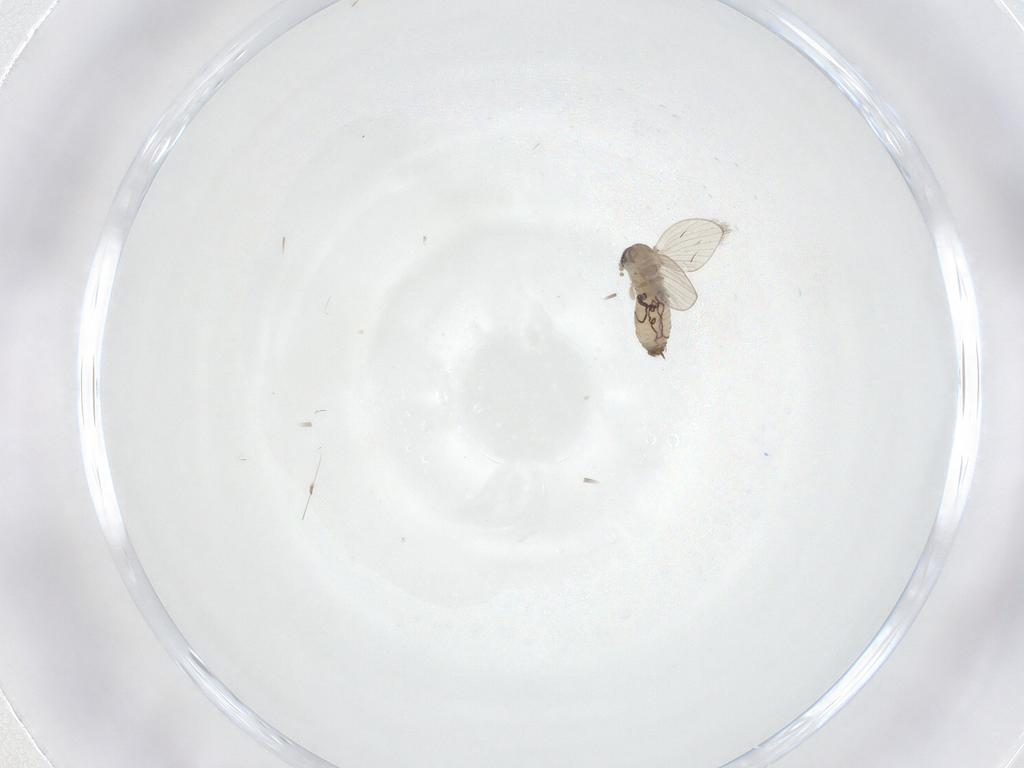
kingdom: Animalia
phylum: Arthropoda
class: Insecta
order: Diptera
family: Psychodidae
